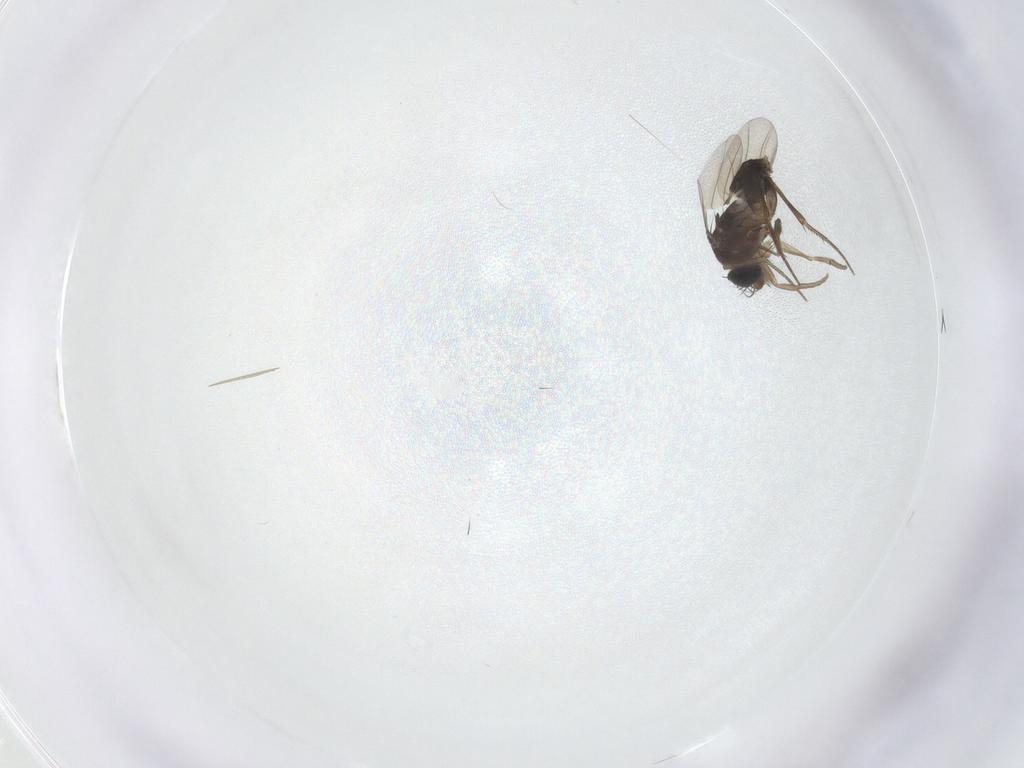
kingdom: Animalia
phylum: Arthropoda
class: Insecta
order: Diptera
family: Phoridae
